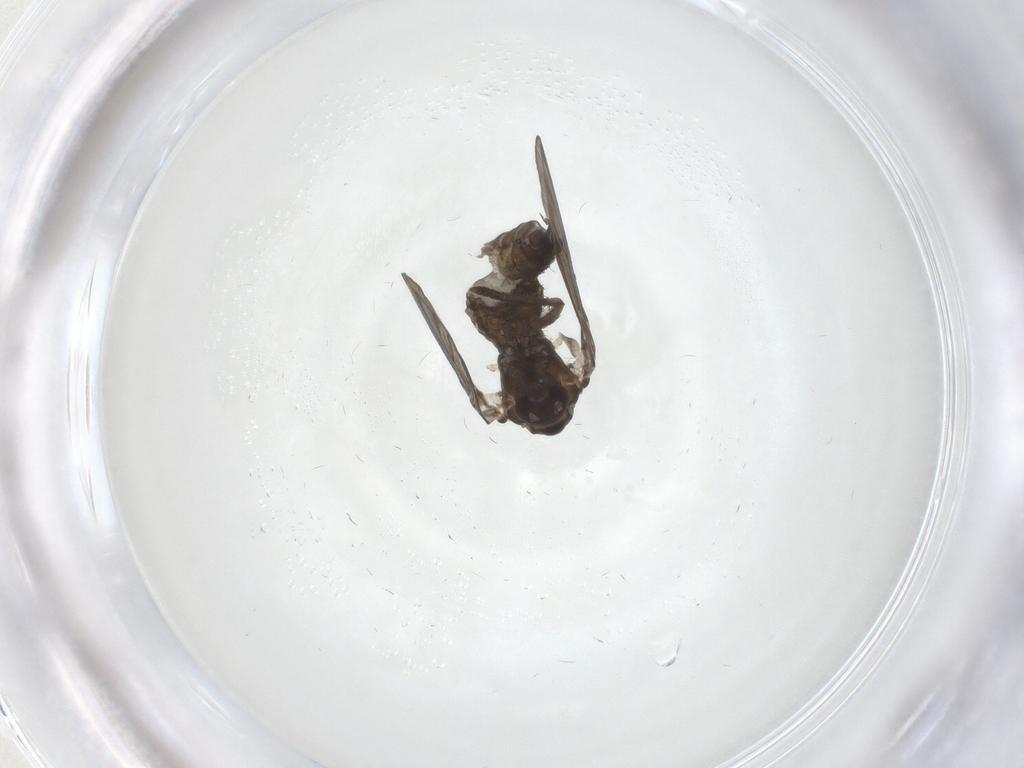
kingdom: Animalia
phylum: Arthropoda
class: Insecta
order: Diptera
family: Psychodidae
